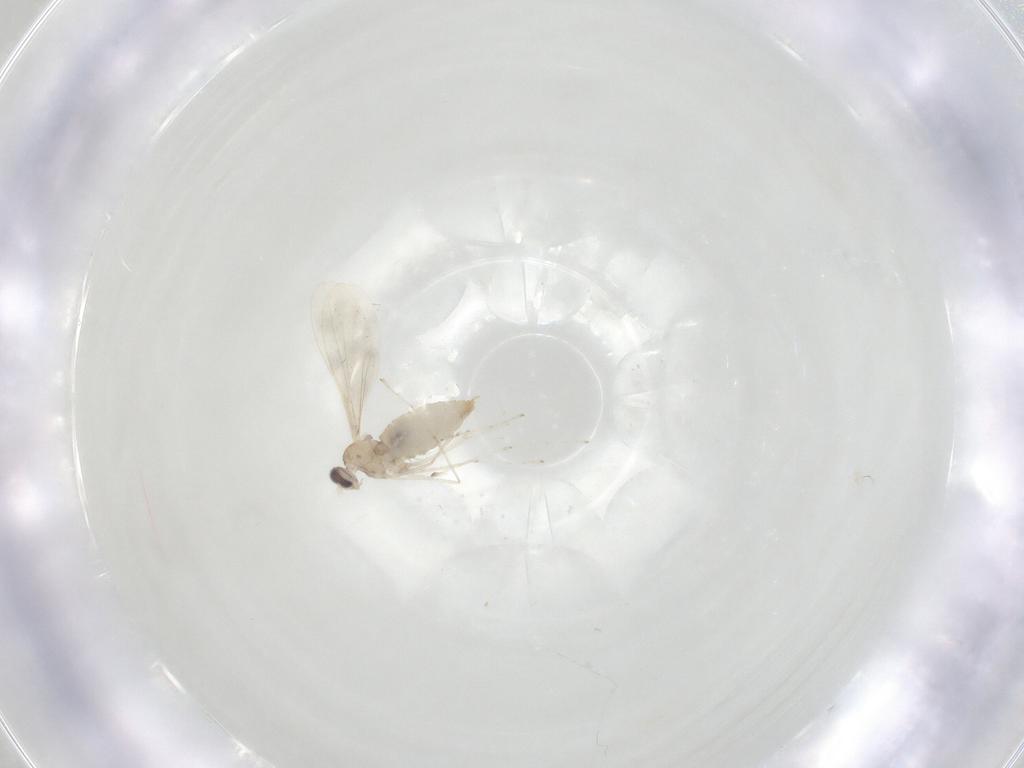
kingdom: Animalia
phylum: Arthropoda
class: Insecta
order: Diptera
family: Cecidomyiidae
